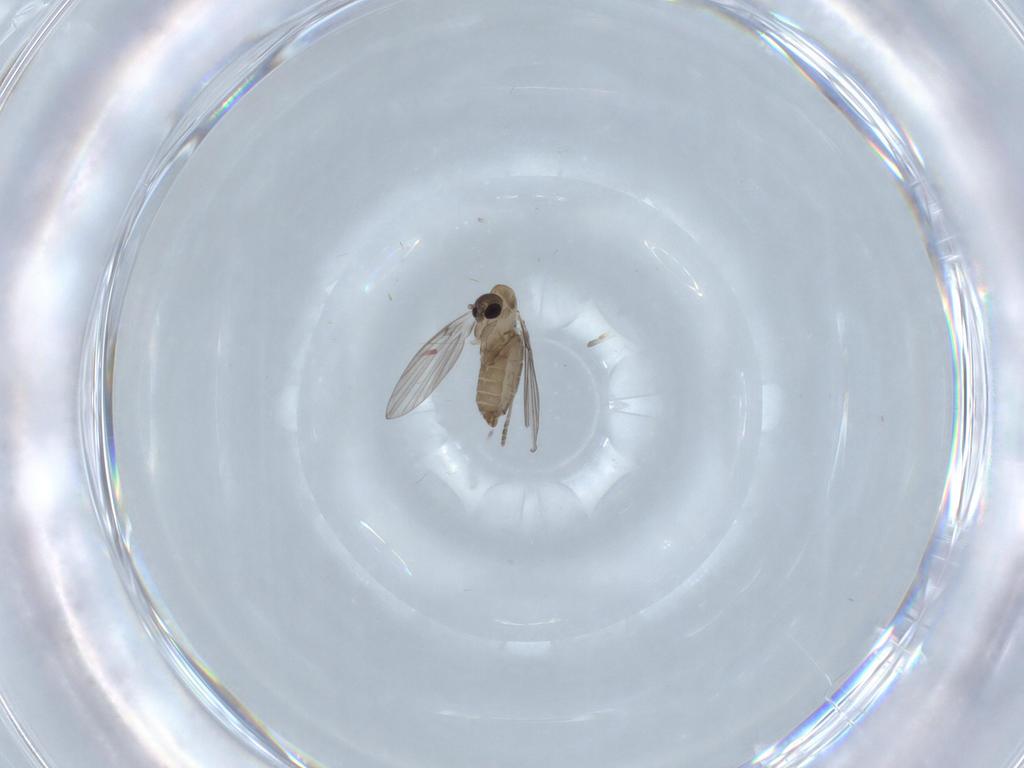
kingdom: Animalia
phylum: Arthropoda
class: Insecta
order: Diptera
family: Psychodidae
